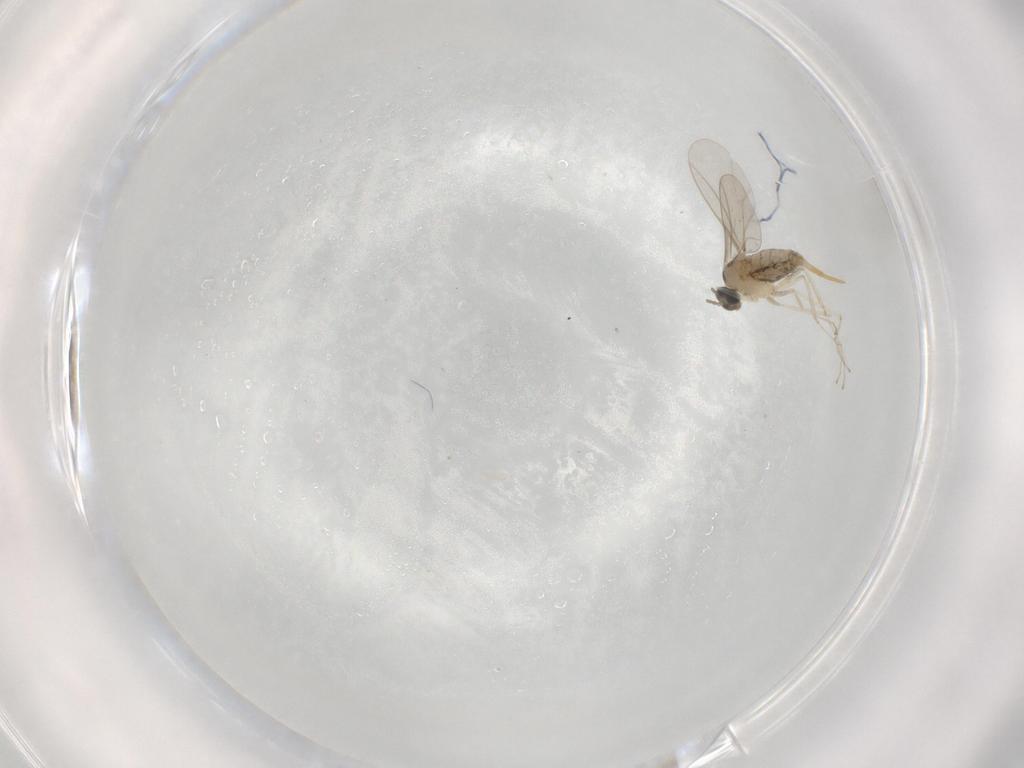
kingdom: Animalia
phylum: Arthropoda
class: Insecta
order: Diptera
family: Cecidomyiidae
